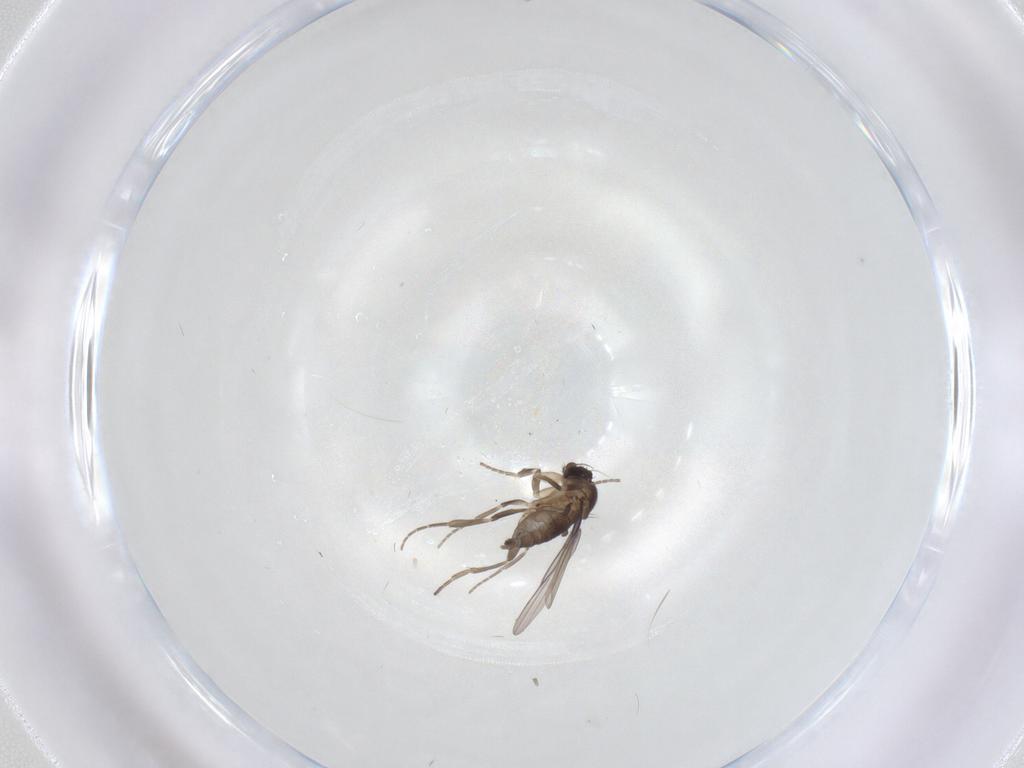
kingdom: Animalia
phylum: Arthropoda
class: Insecta
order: Diptera
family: Phoridae
